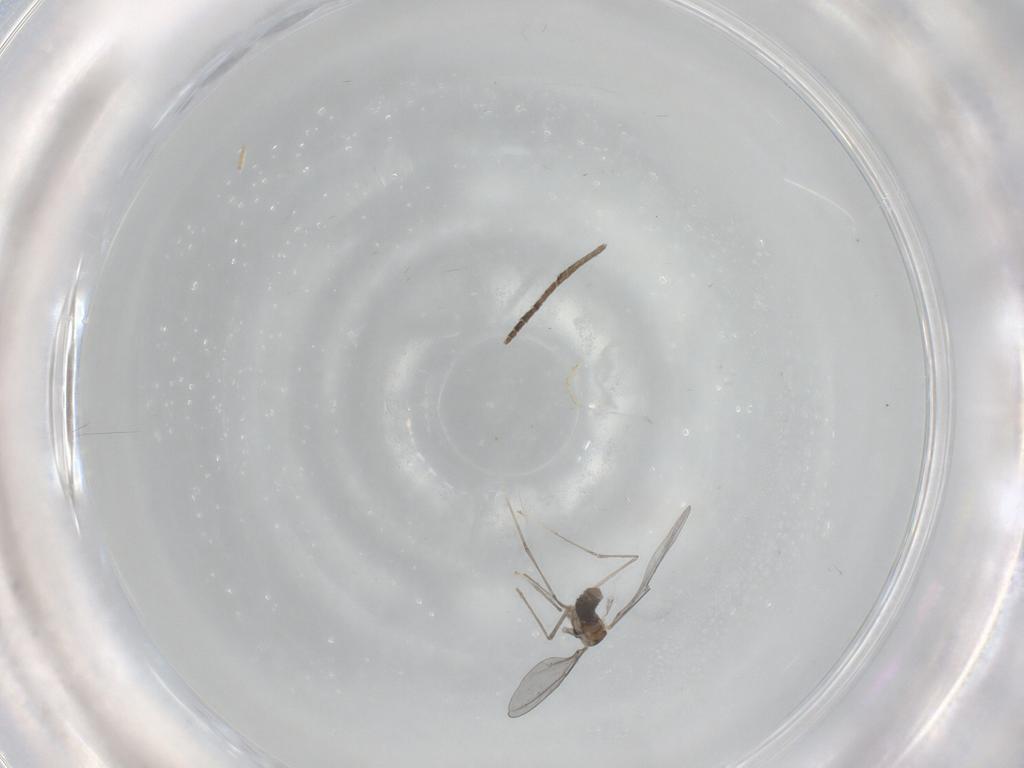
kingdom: Animalia
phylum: Arthropoda
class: Insecta
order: Diptera
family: Cecidomyiidae
